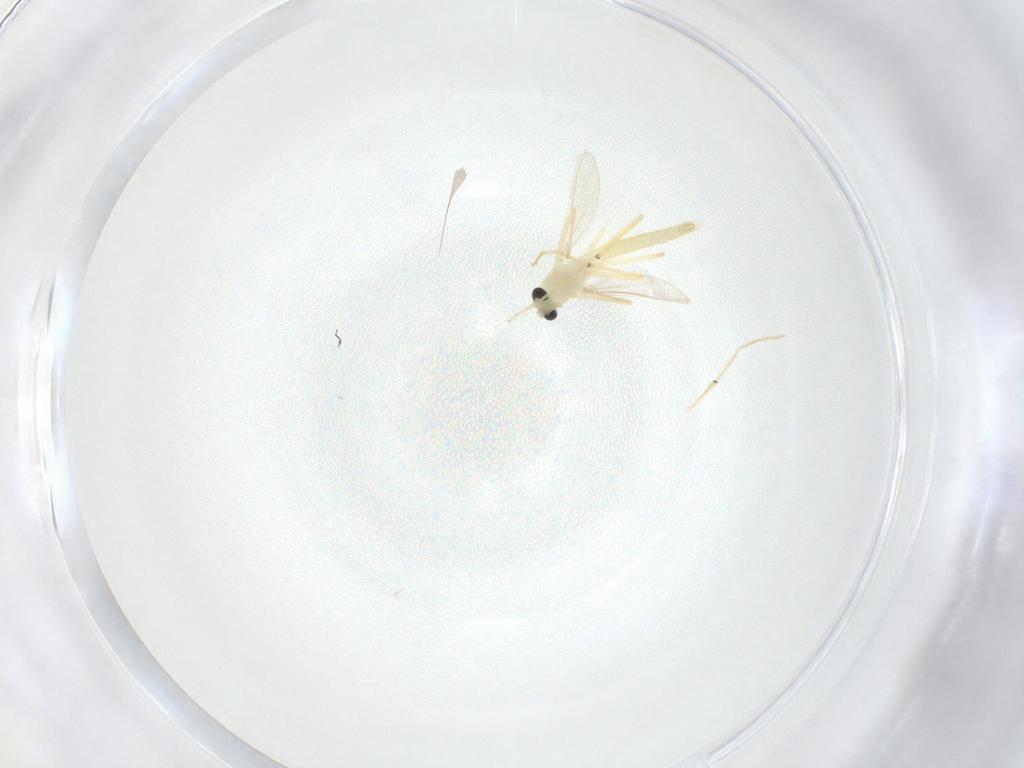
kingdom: Animalia
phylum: Arthropoda
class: Insecta
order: Diptera
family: Chironomidae
